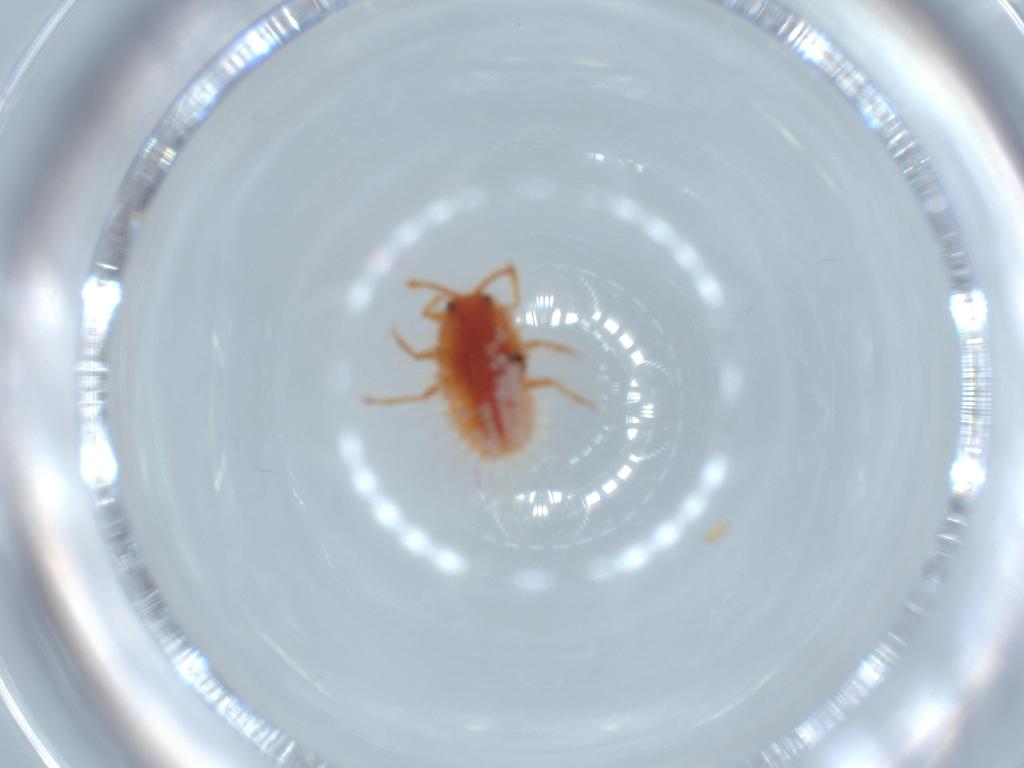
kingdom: Animalia
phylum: Arthropoda
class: Insecta
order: Hemiptera
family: Coccoidea_incertae_sedis
